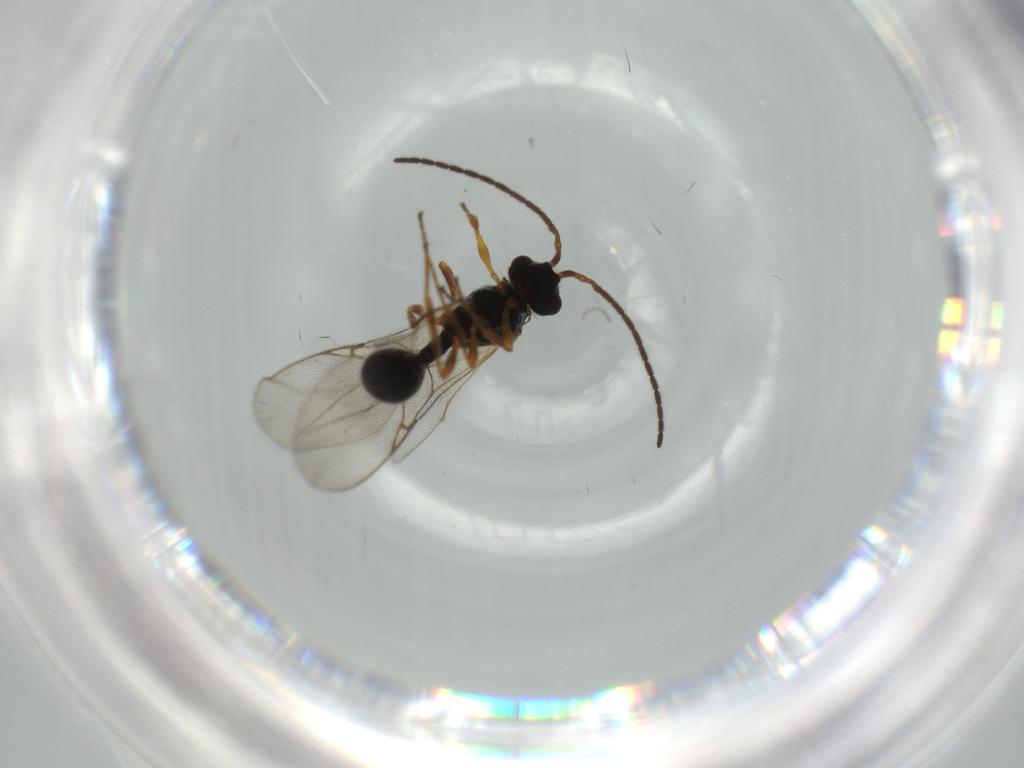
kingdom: Animalia
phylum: Arthropoda
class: Insecta
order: Hymenoptera
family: Diapriidae
